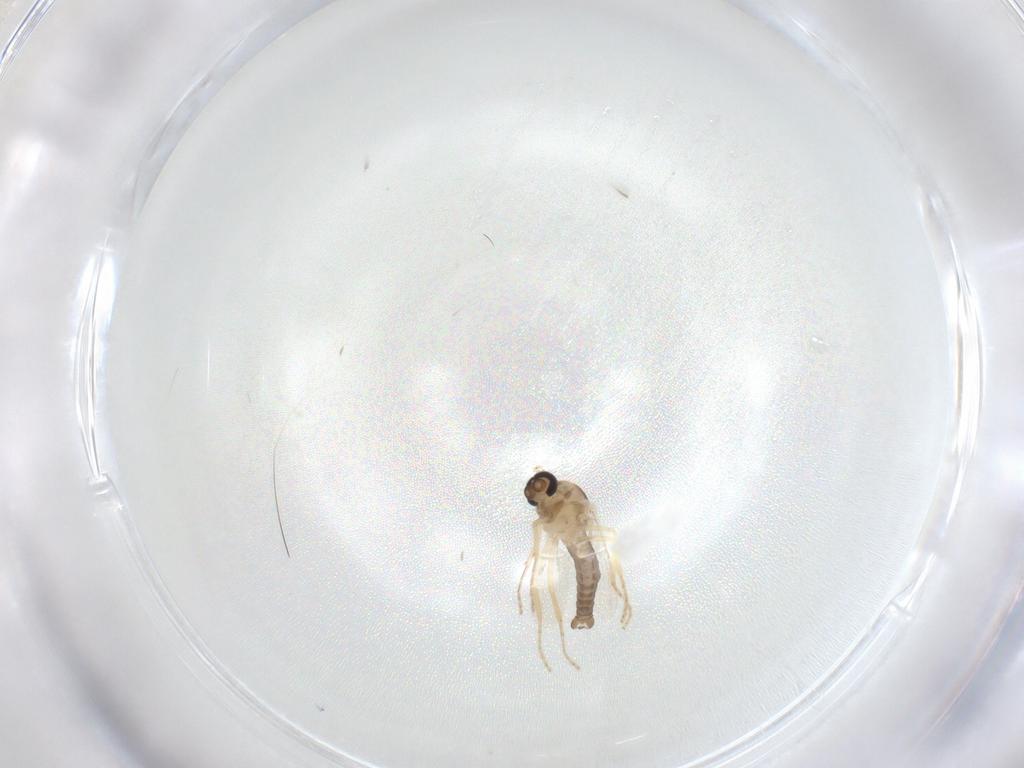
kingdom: Animalia
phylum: Arthropoda
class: Insecta
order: Diptera
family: Ceratopogonidae
